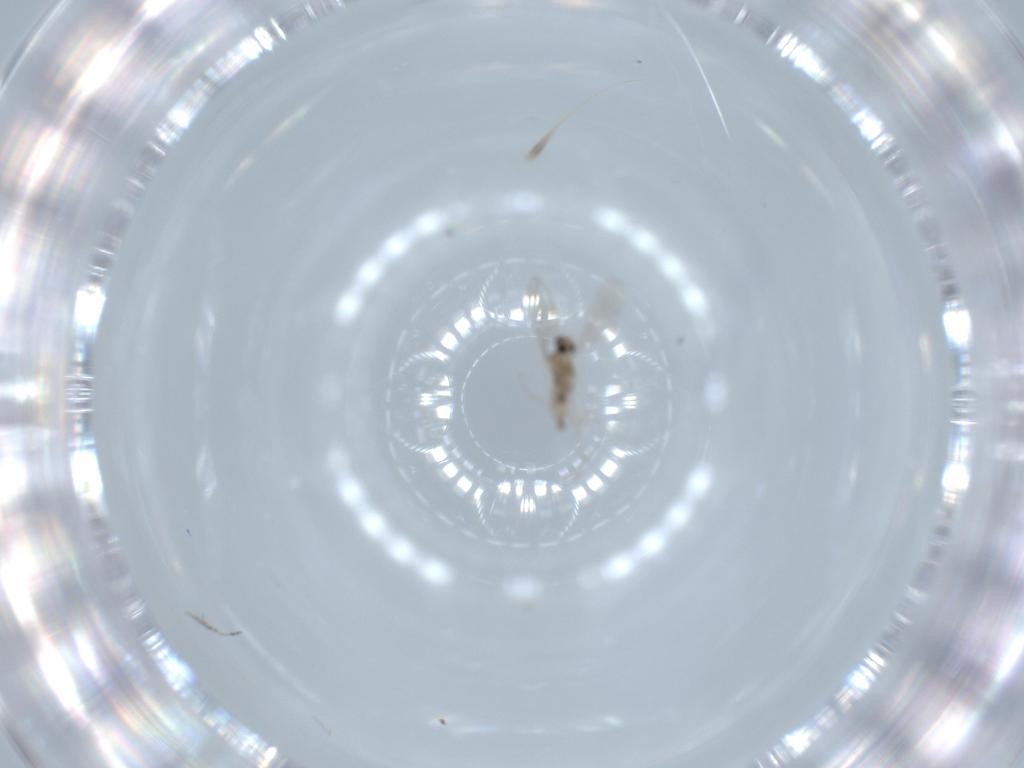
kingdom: Animalia
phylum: Arthropoda
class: Insecta
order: Diptera
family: Cecidomyiidae
